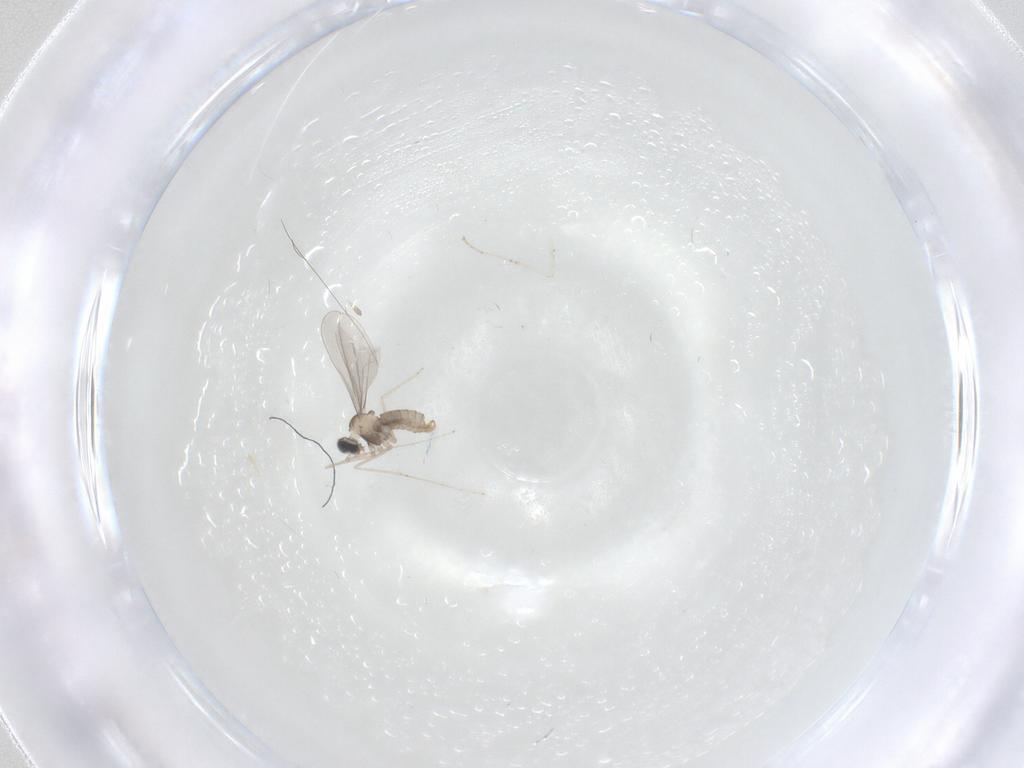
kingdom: Animalia
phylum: Arthropoda
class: Insecta
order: Diptera
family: Cecidomyiidae
